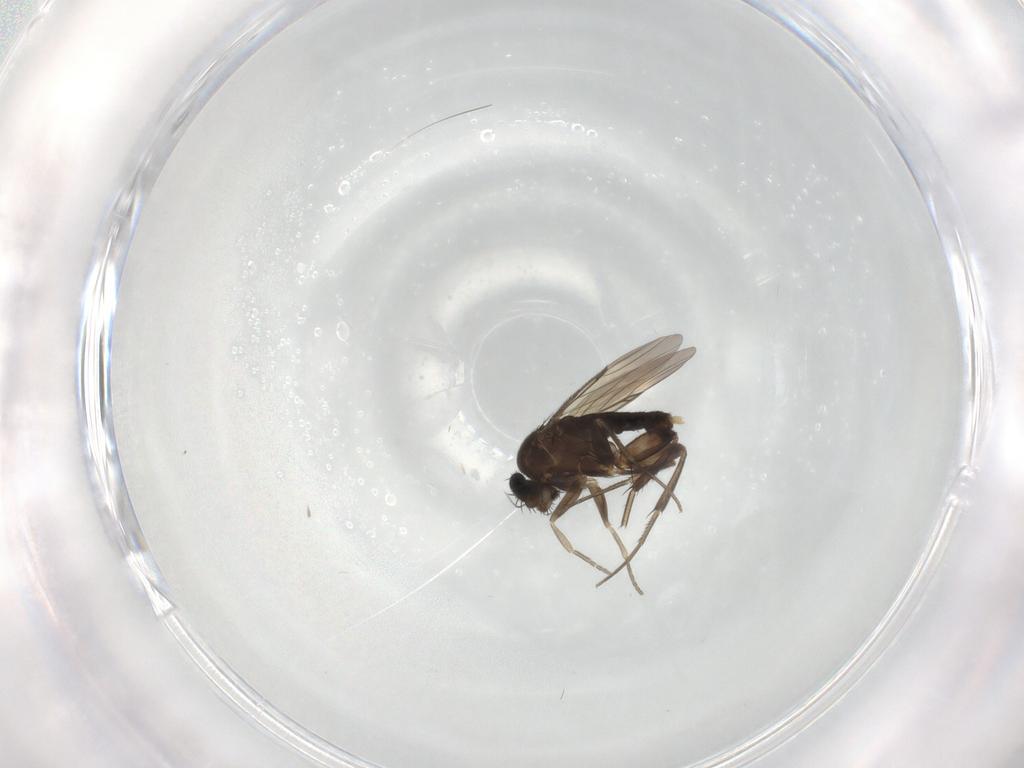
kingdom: Animalia
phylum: Arthropoda
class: Insecta
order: Diptera
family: Phoridae
